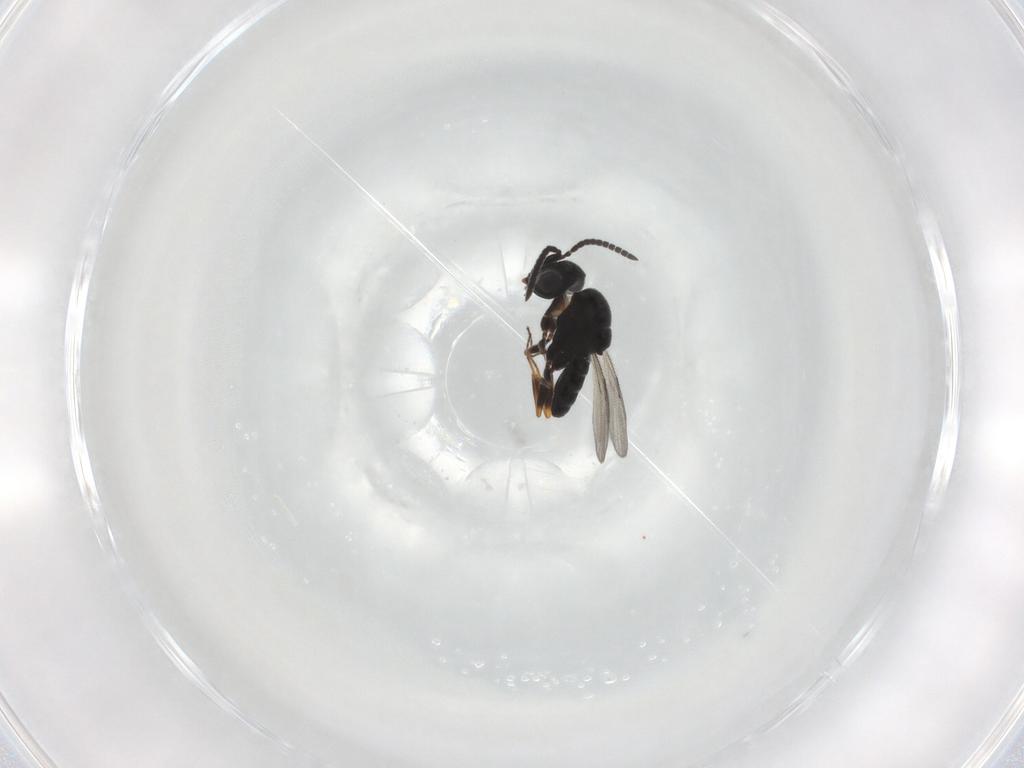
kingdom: Animalia
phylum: Arthropoda
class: Insecta
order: Hymenoptera
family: Scelionidae
